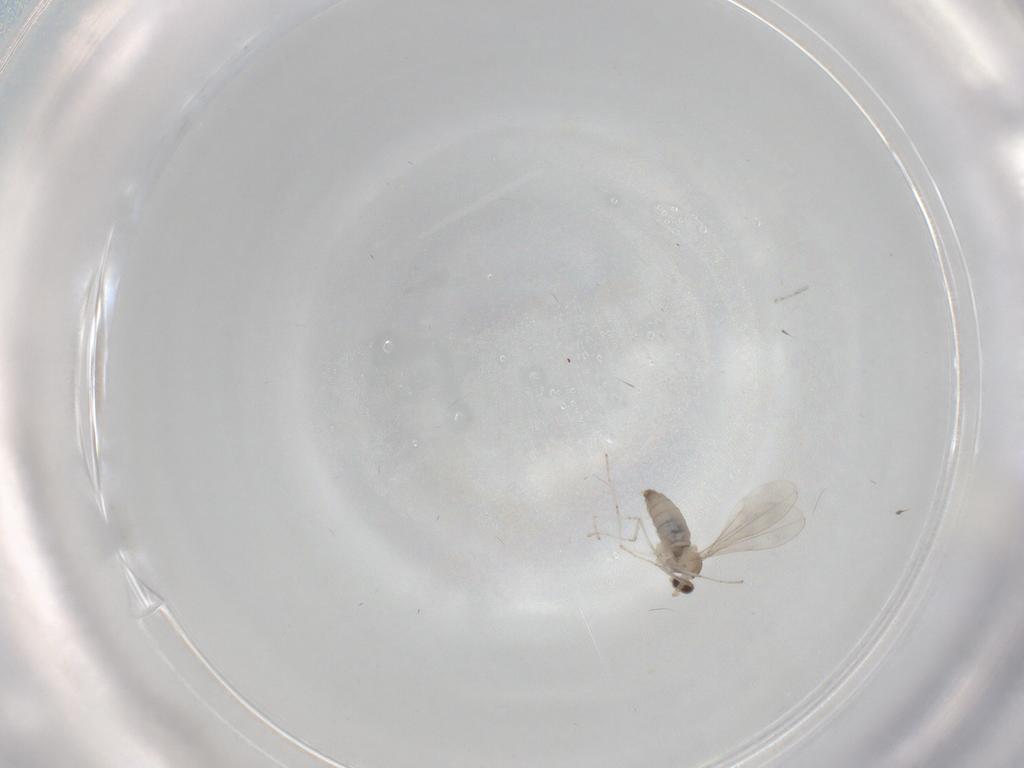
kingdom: Animalia
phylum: Arthropoda
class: Insecta
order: Diptera
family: Cecidomyiidae
